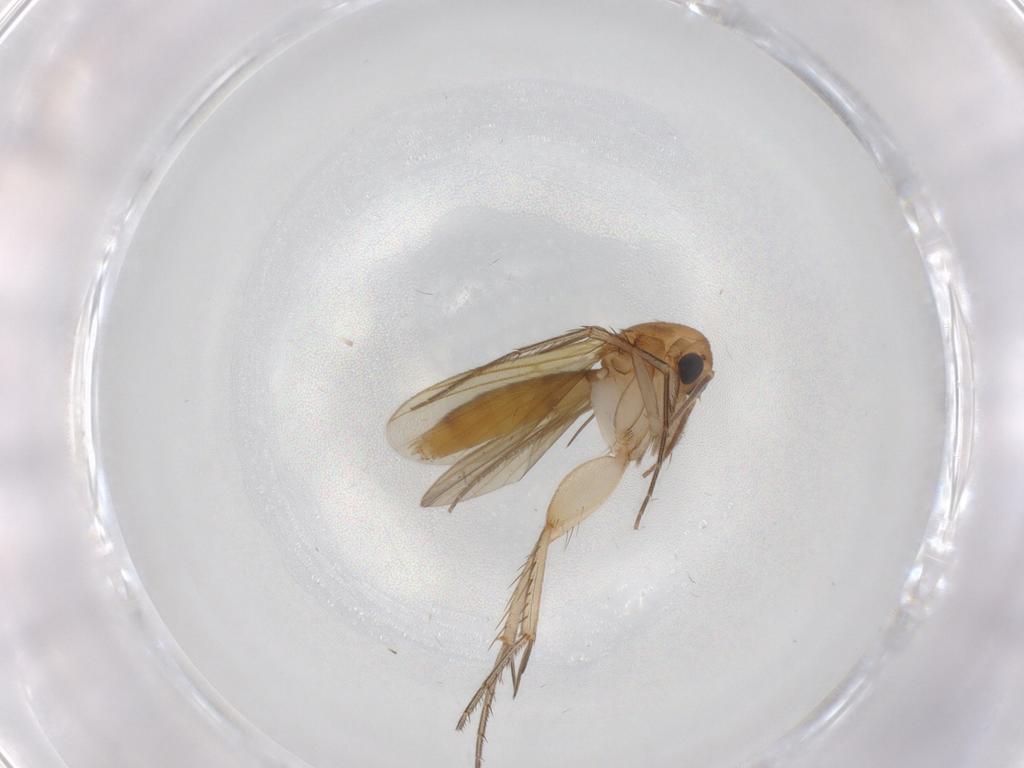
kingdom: Animalia
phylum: Arthropoda
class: Insecta
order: Diptera
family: Mycetophilidae
